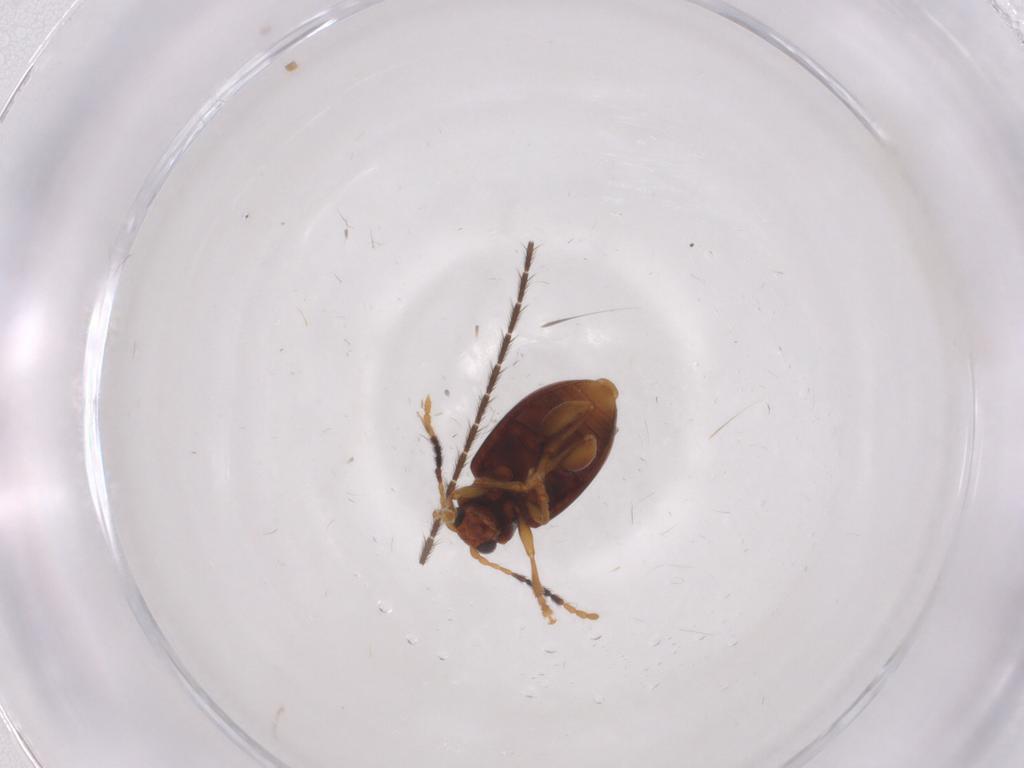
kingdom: Animalia
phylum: Arthropoda
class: Insecta
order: Coleoptera
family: Chrysomelidae
